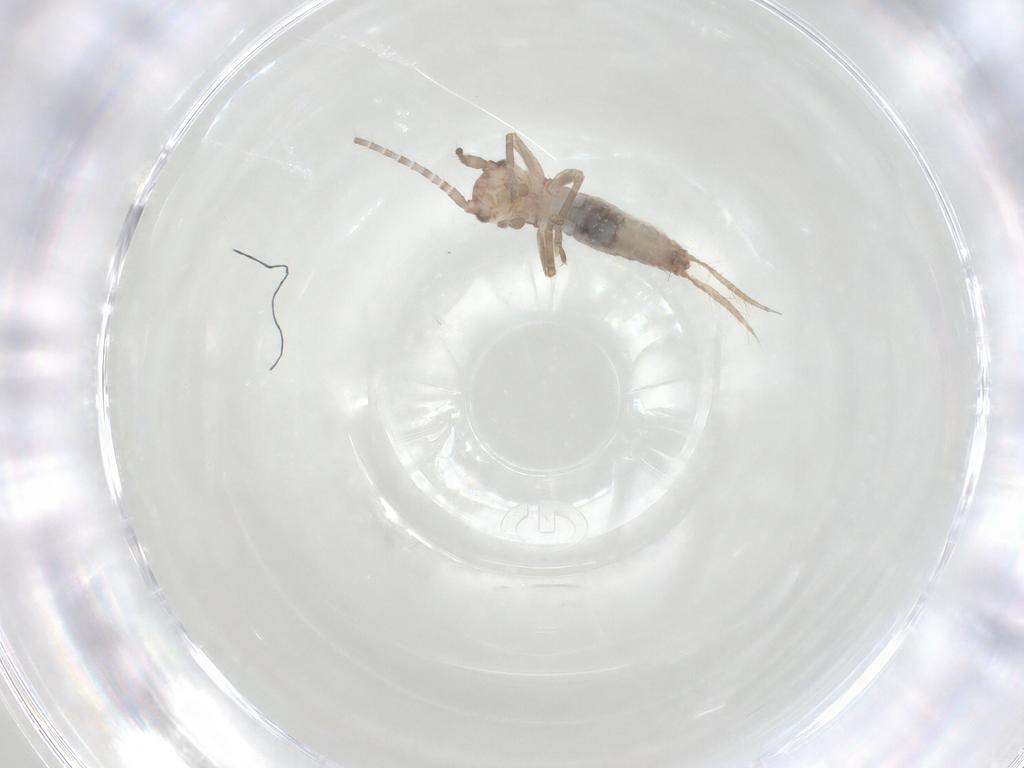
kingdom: Animalia
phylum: Arthropoda
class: Insecta
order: Orthoptera
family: Mogoplistidae
